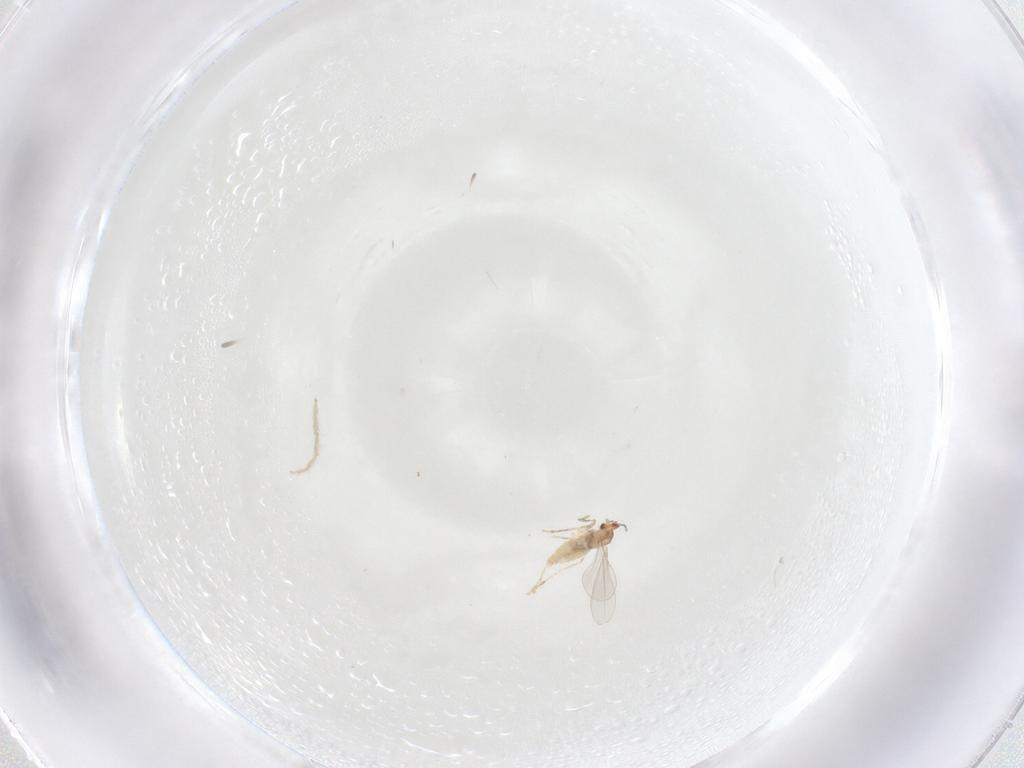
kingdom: Animalia
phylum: Arthropoda
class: Insecta
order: Diptera
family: Cecidomyiidae
